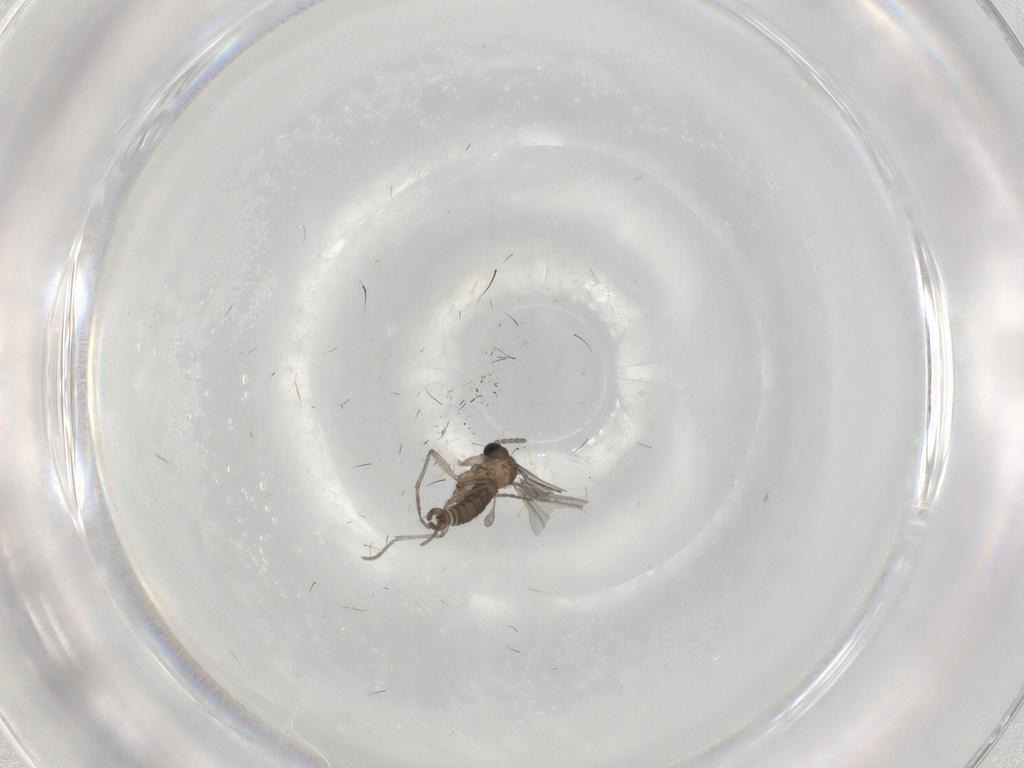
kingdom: Animalia
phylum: Arthropoda
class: Insecta
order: Diptera
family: Sciaridae
